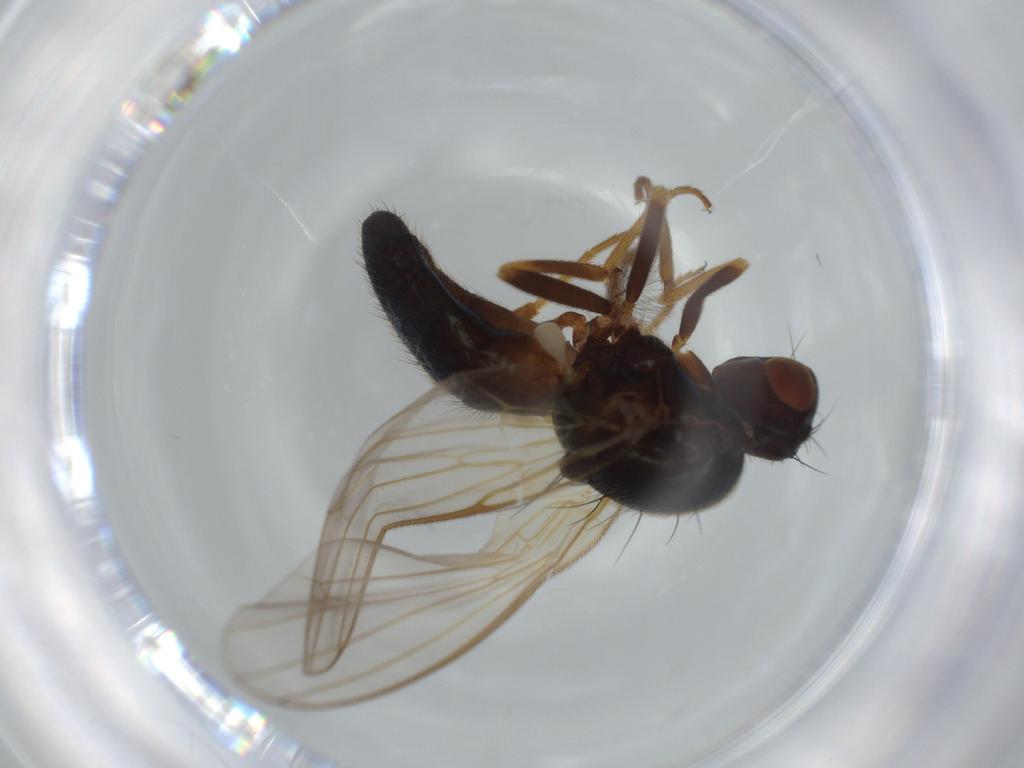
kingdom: Animalia
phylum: Arthropoda
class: Insecta
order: Diptera
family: Chironomidae
